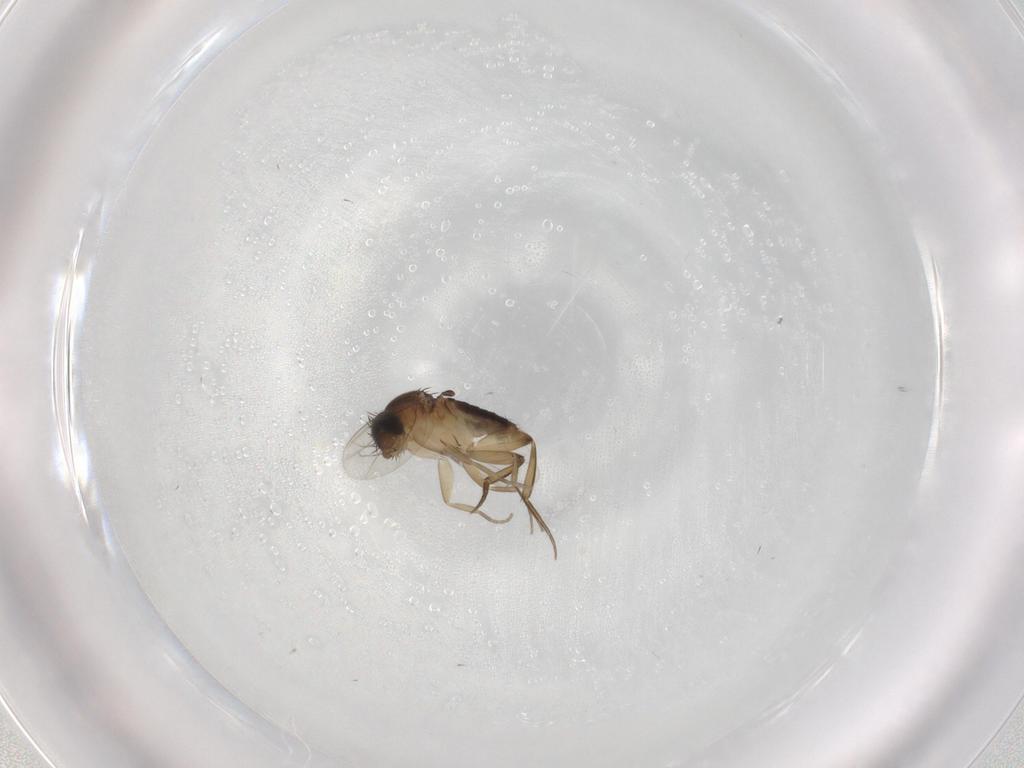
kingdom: Animalia
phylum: Arthropoda
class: Insecta
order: Diptera
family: Phoridae
